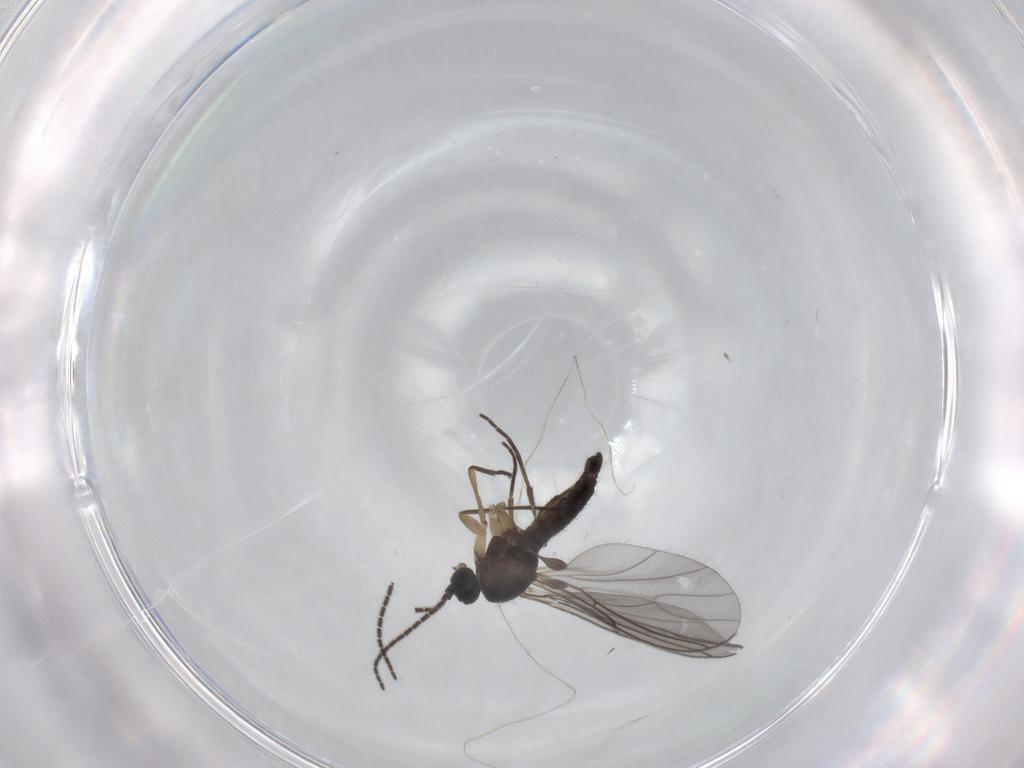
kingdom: Animalia
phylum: Arthropoda
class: Insecta
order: Diptera
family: Sciaridae
